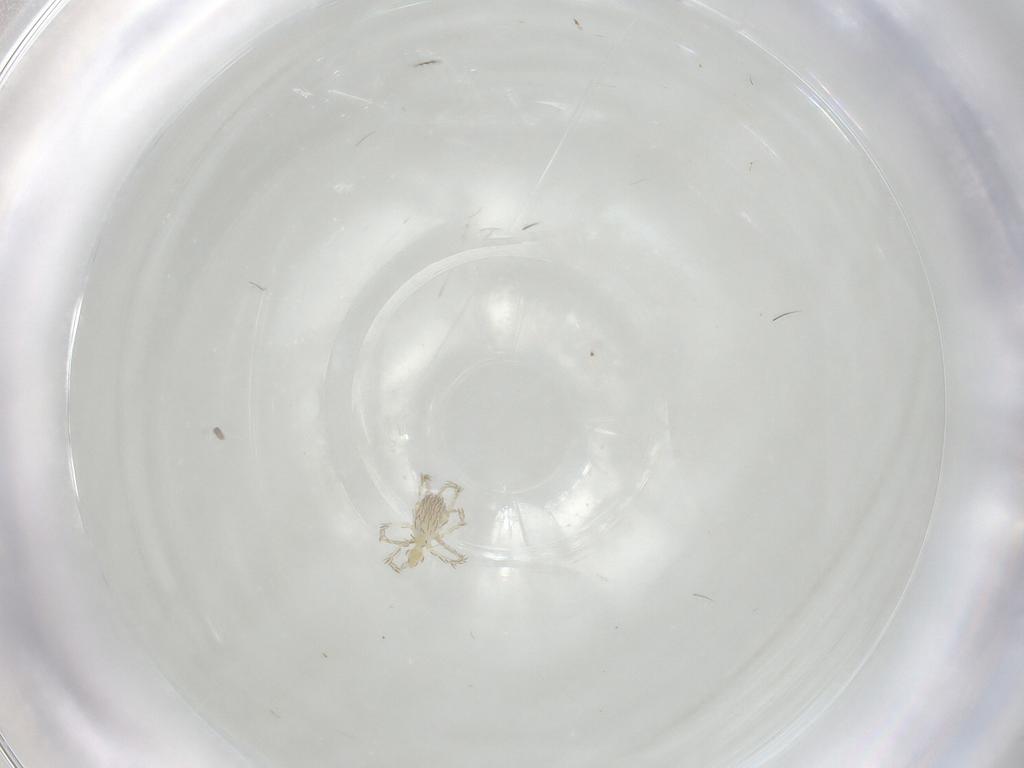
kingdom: Animalia
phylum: Arthropoda
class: Arachnida
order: Trombidiformes
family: Erythraeidae
